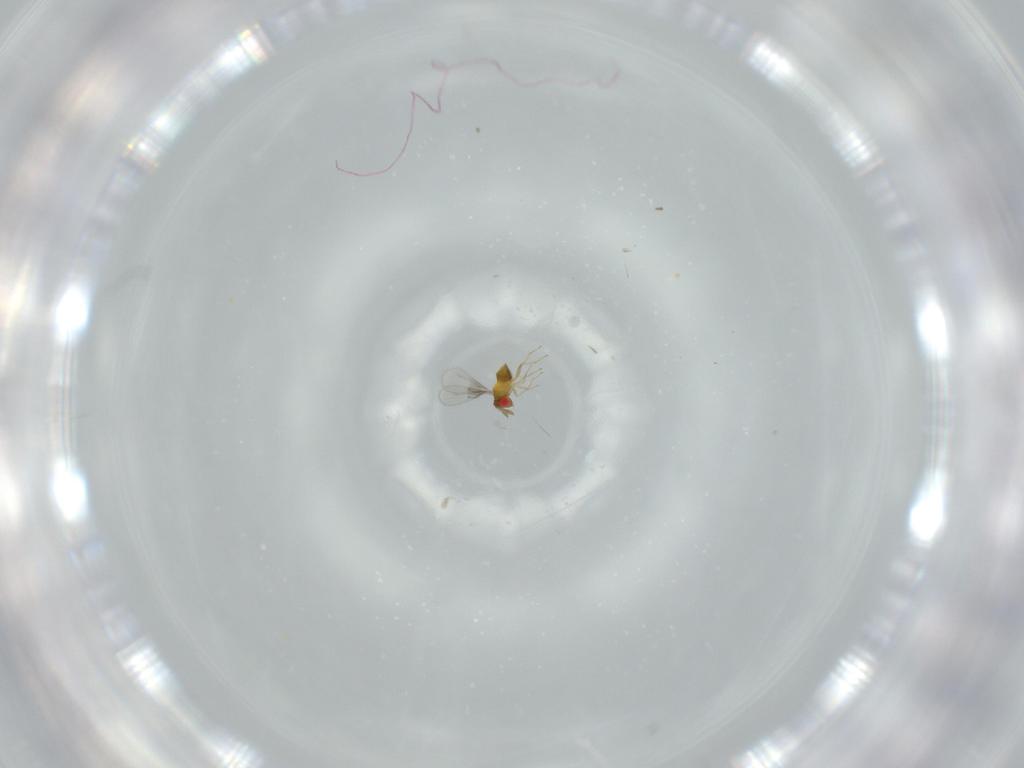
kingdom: Animalia
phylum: Arthropoda
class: Insecta
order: Hymenoptera
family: Trichogrammatidae
